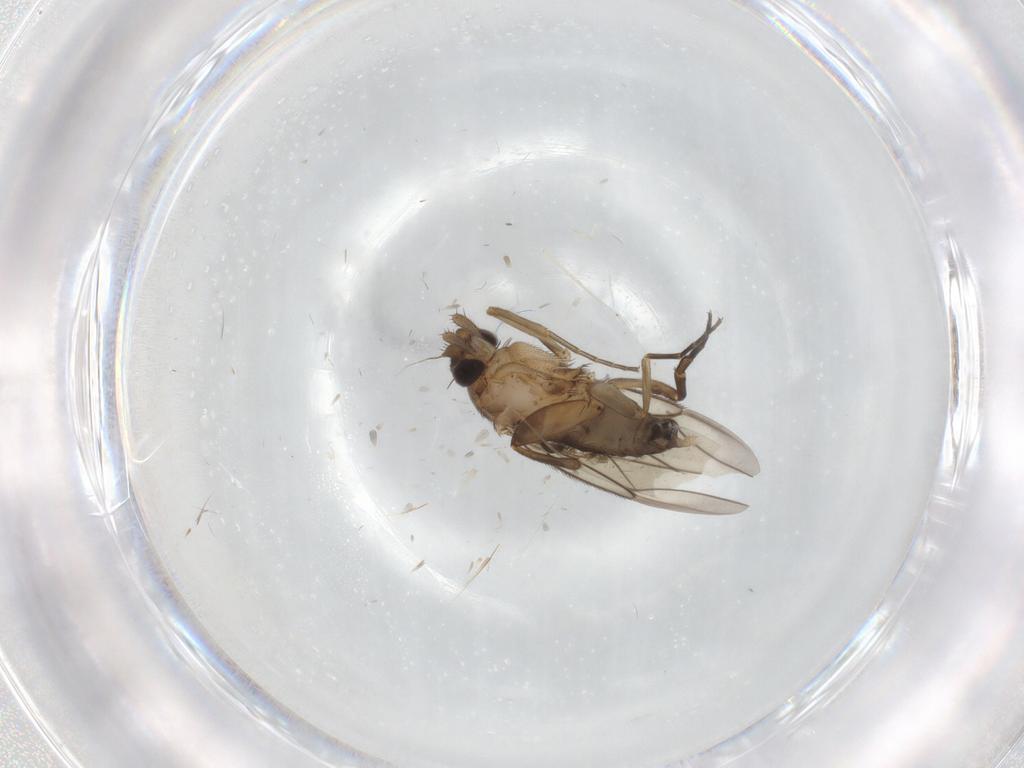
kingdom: Animalia
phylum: Arthropoda
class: Insecta
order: Diptera
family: Phoridae
